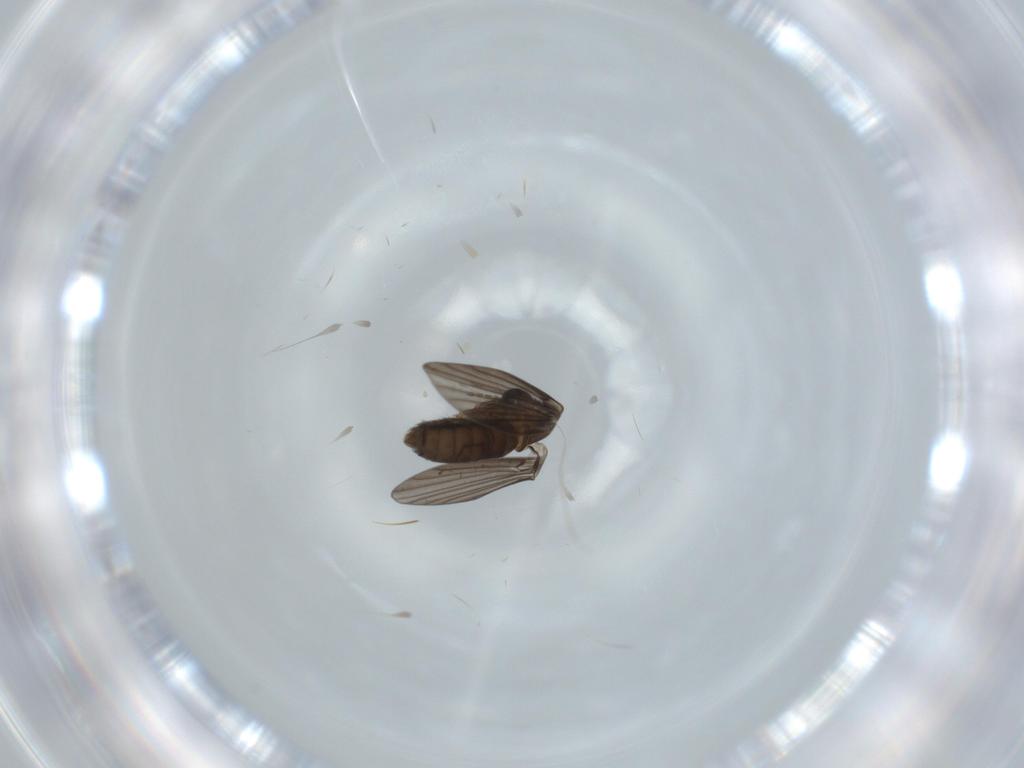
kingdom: Animalia
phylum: Arthropoda
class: Insecta
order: Diptera
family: Psychodidae
